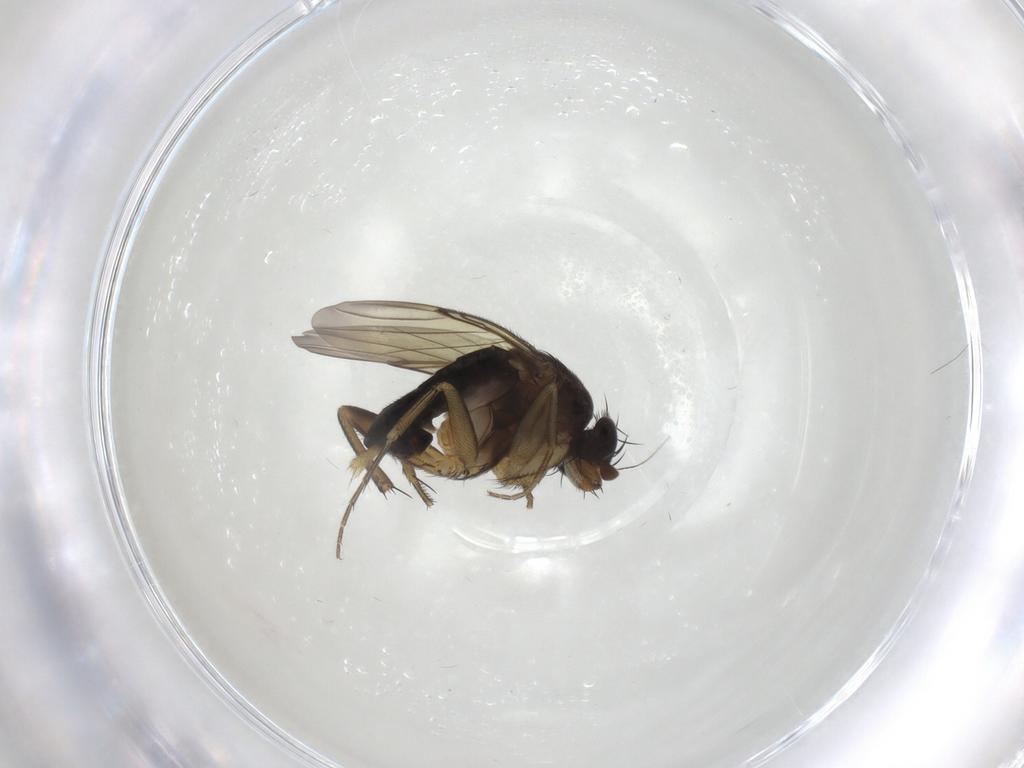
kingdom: Animalia
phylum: Arthropoda
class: Insecta
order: Diptera
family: Phoridae
